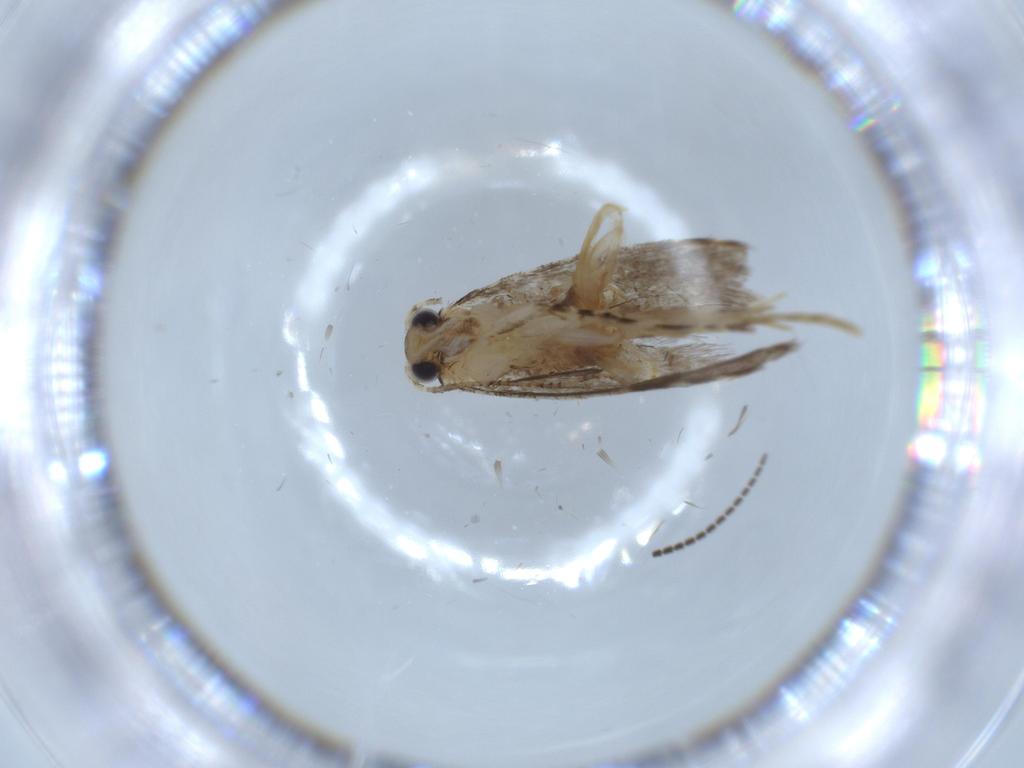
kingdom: Animalia
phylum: Arthropoda
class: Insecta
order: Lepidoptera
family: Tineidae
